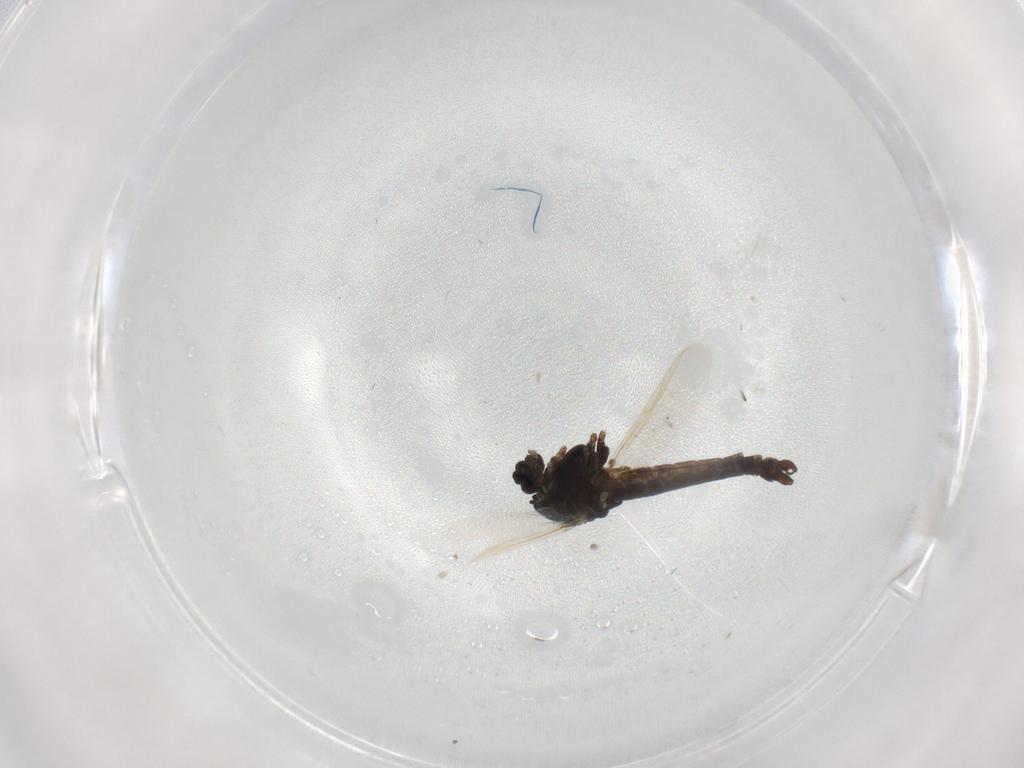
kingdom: Animalia
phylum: Arthropoda
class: Insecta
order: Diptera
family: Chironomidae
